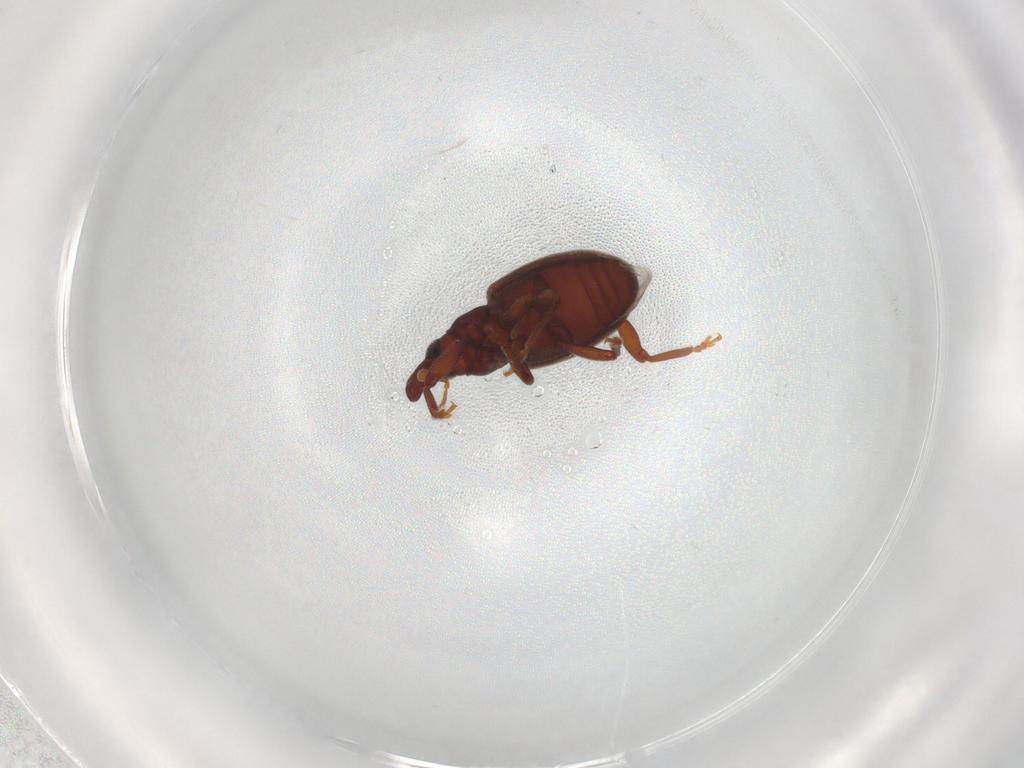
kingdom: Animalia
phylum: Arthropoda
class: Insecta
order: Coleoptera
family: Curculionidae
